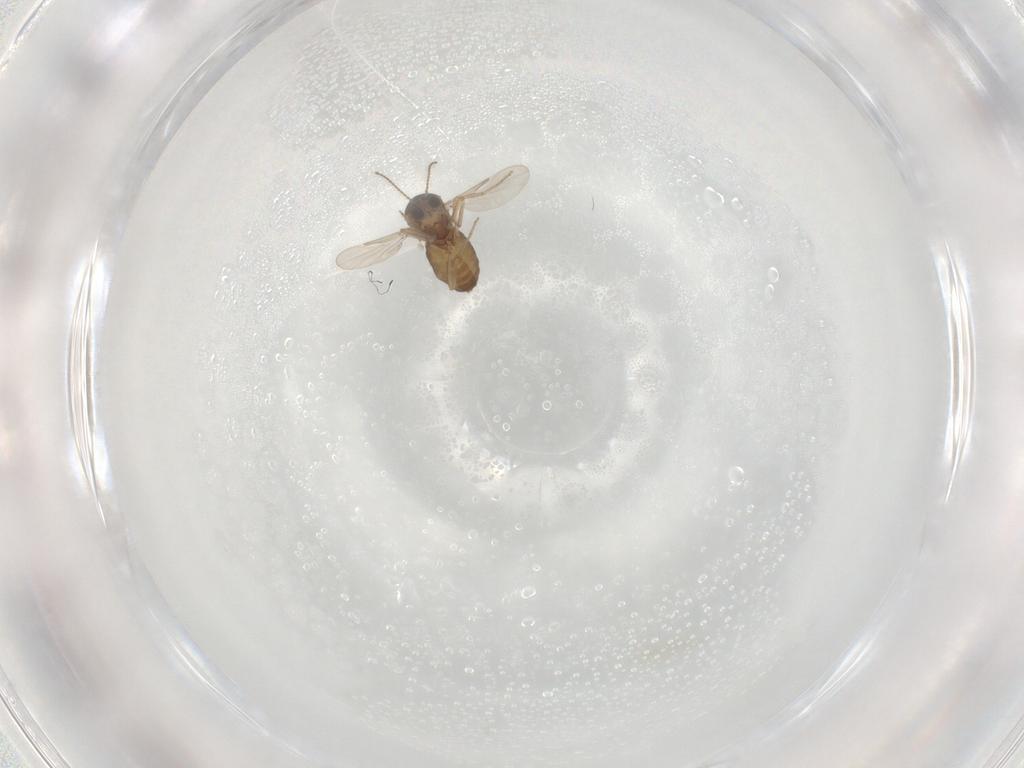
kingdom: Animalia
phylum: Arthropoda
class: Insecta
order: Diptera
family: Ceratopogonidae
